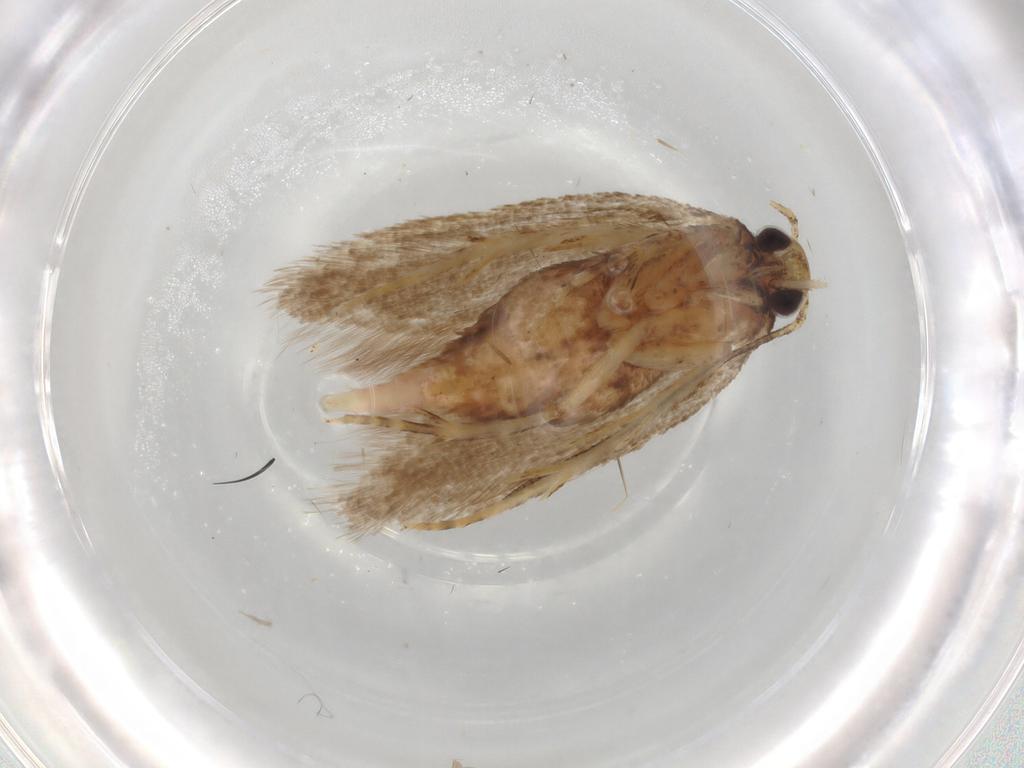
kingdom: Animalia
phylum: Arthropoda
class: Insecta
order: Lepidoptera
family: Oecophoridae
